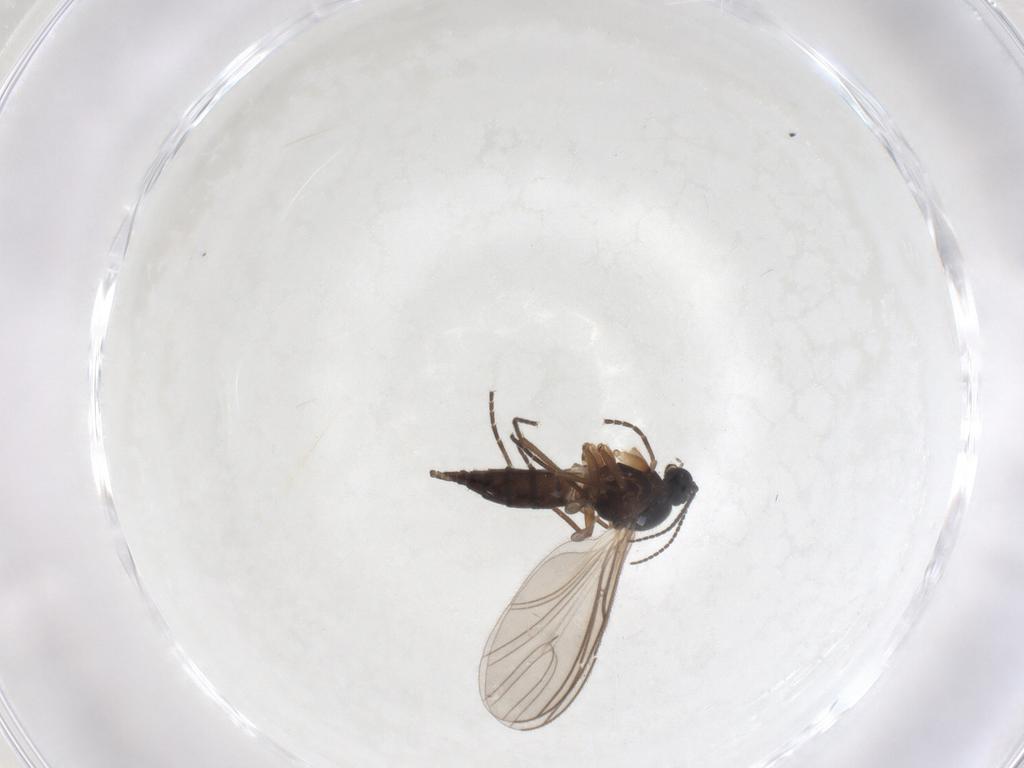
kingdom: Animalia
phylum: Arthropoda
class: Insecta
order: Diptera
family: Sciaridae
